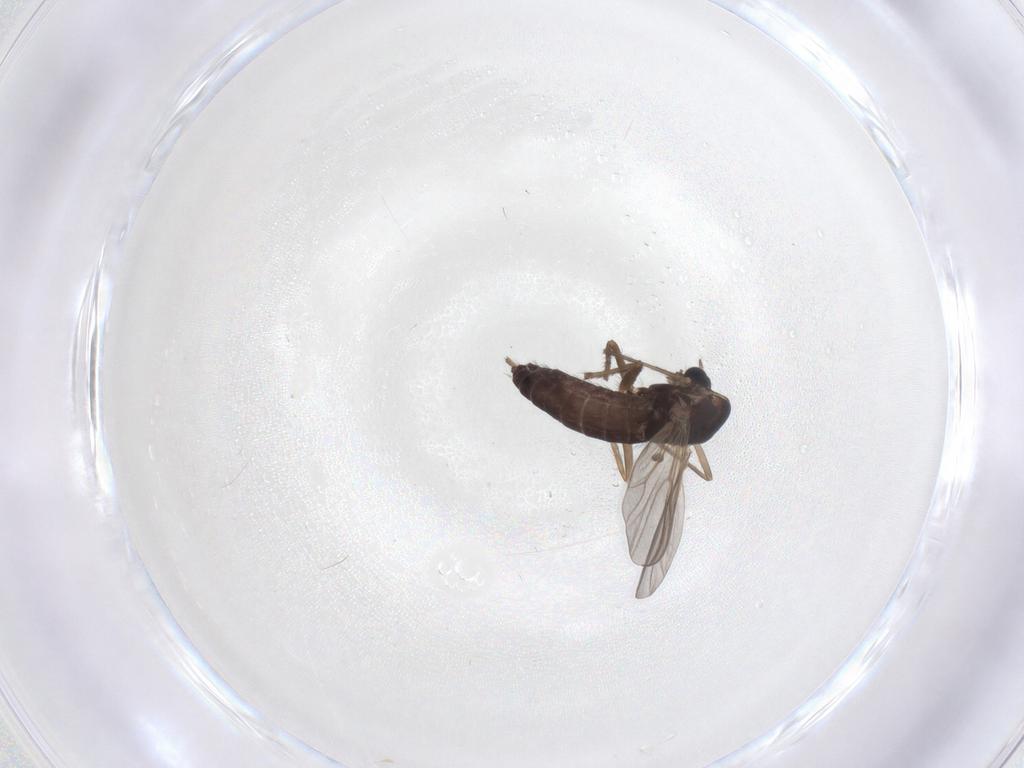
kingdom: Animalia
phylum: Arthropoda
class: Insecta
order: Diptera
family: Chironomidae
